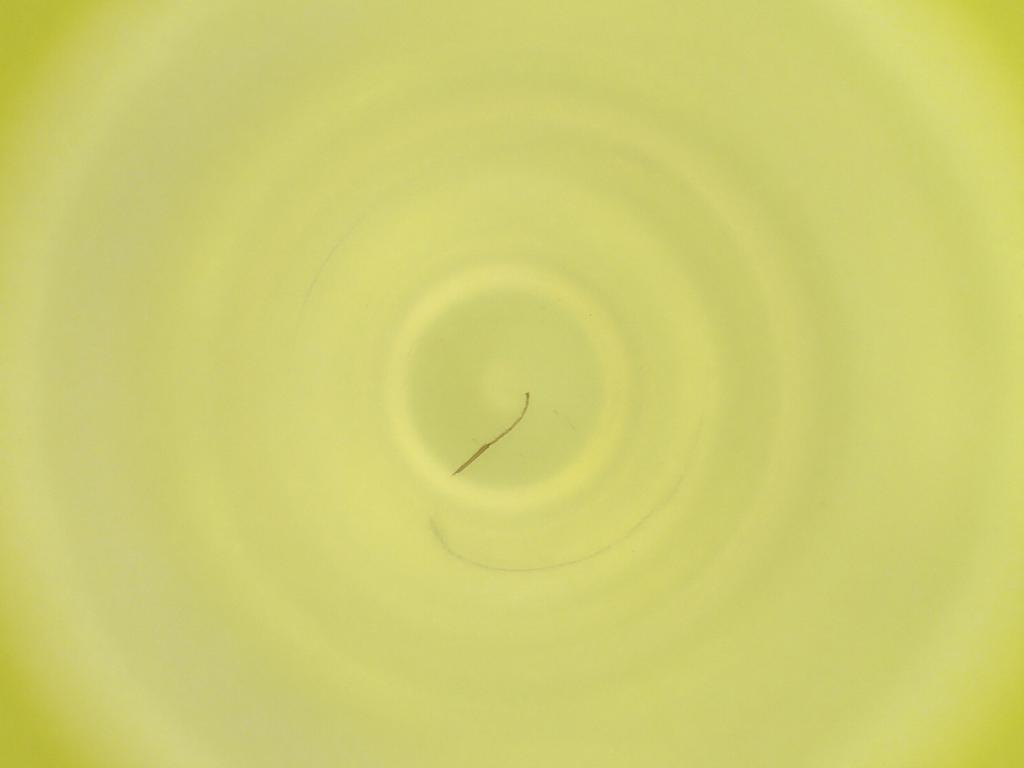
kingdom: Animalia
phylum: Arthropoda
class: Insecta
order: Diptera
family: Cecidomyiidae
